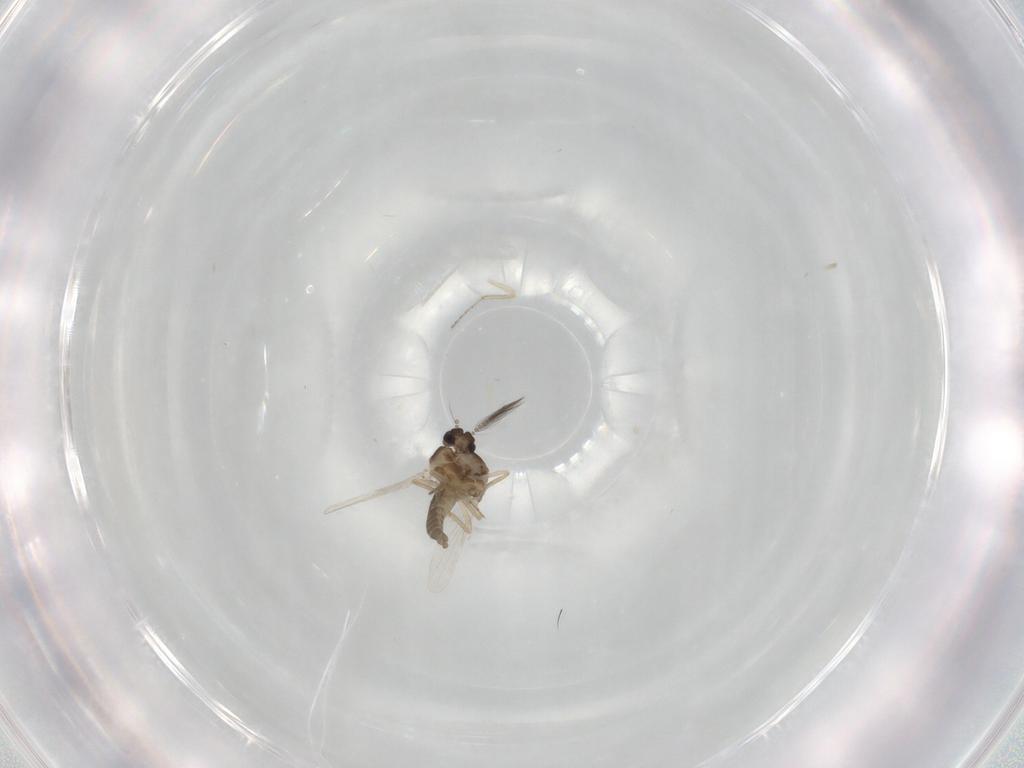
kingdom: Animalia
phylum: Arthropoda
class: Insecta
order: Diptera
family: Ceratopogonidae
